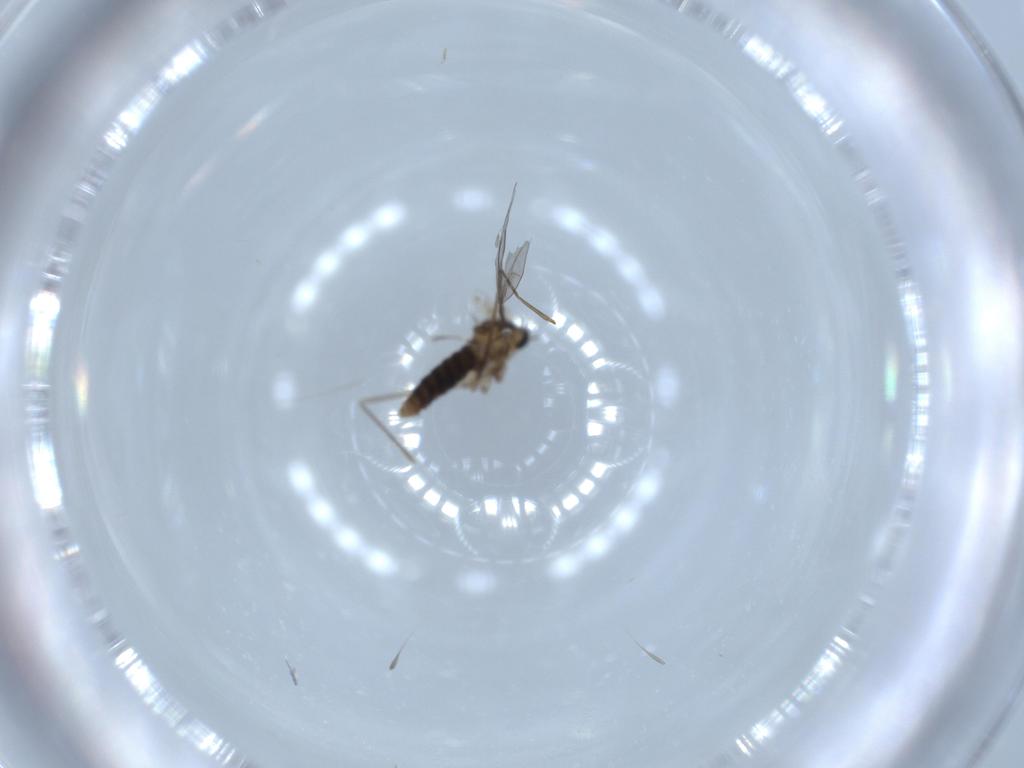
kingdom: Animalia
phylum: Arthropoda
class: Insecta
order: Diptera
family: Cecidomyiidae
